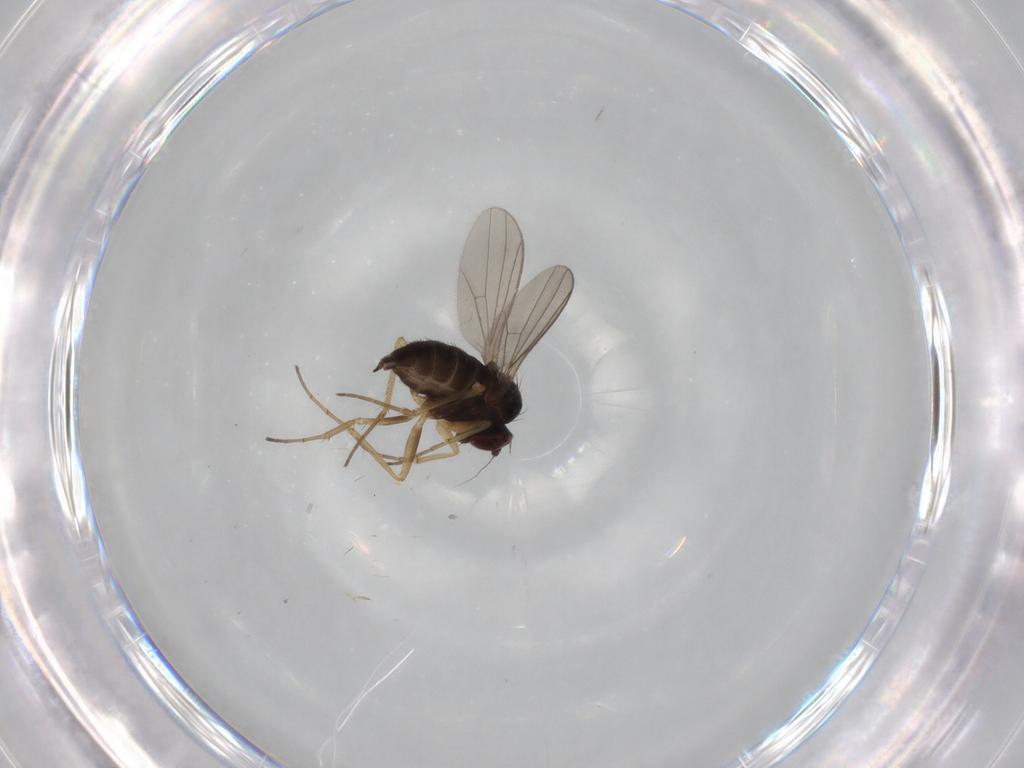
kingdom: Animalia
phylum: Arthropoda
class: Insecta
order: Diptera
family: Dolichopodidae
